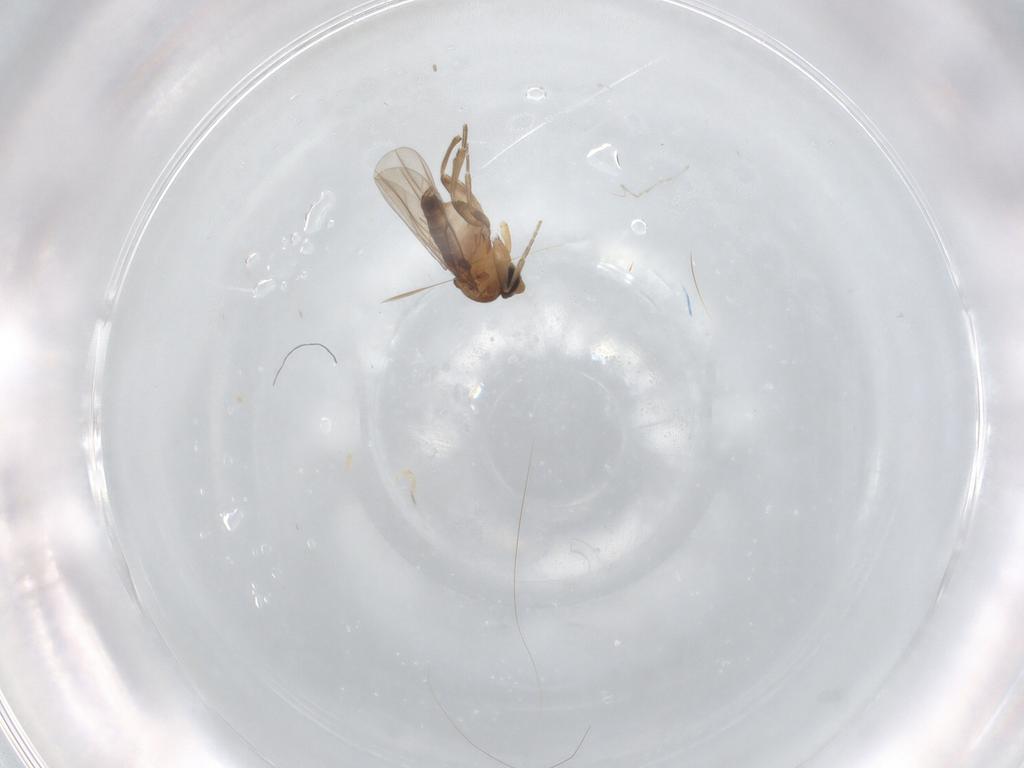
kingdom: Animalia
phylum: Arthropoda
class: Insecta
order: Diptera
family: Phoridae
